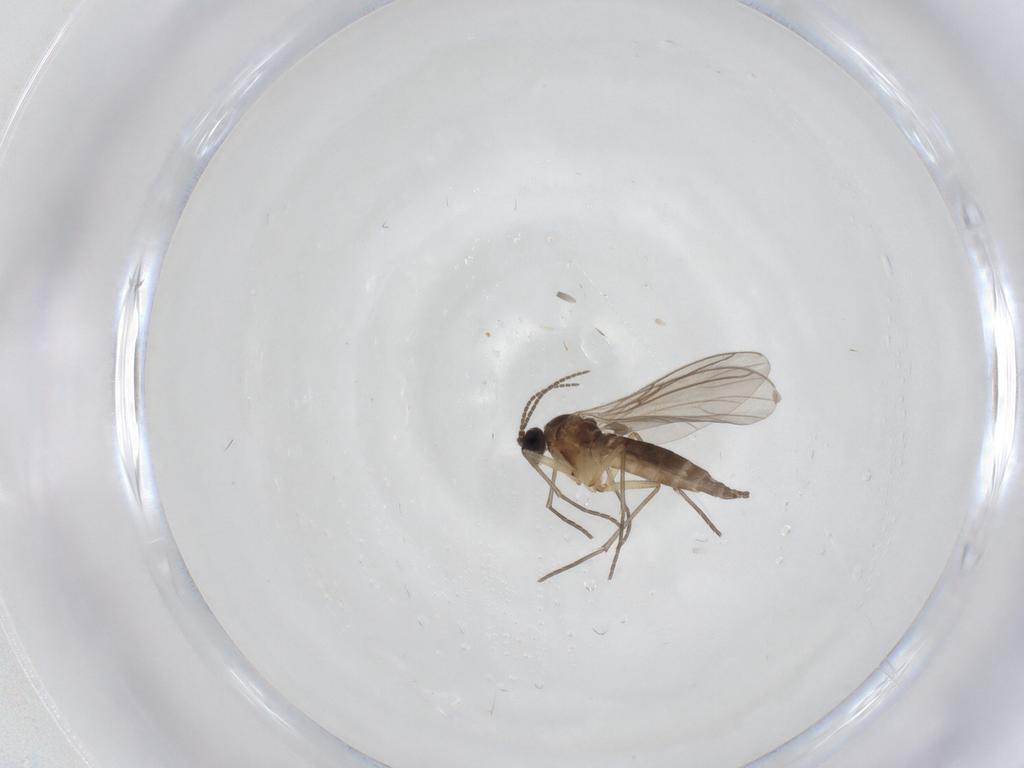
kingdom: Animalia
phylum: Arthropoda
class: Insecta
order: Diptera
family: Sciaridae
